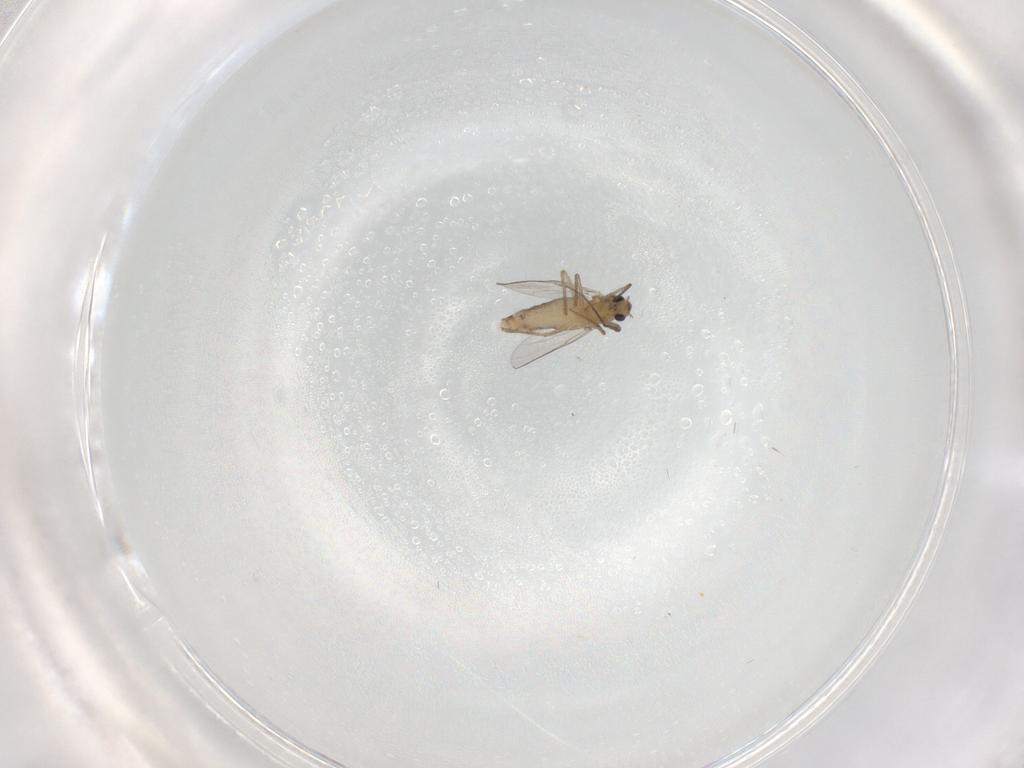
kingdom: Animalia
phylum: Arthropoda
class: Insecta
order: Diptera
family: Chironomidae
